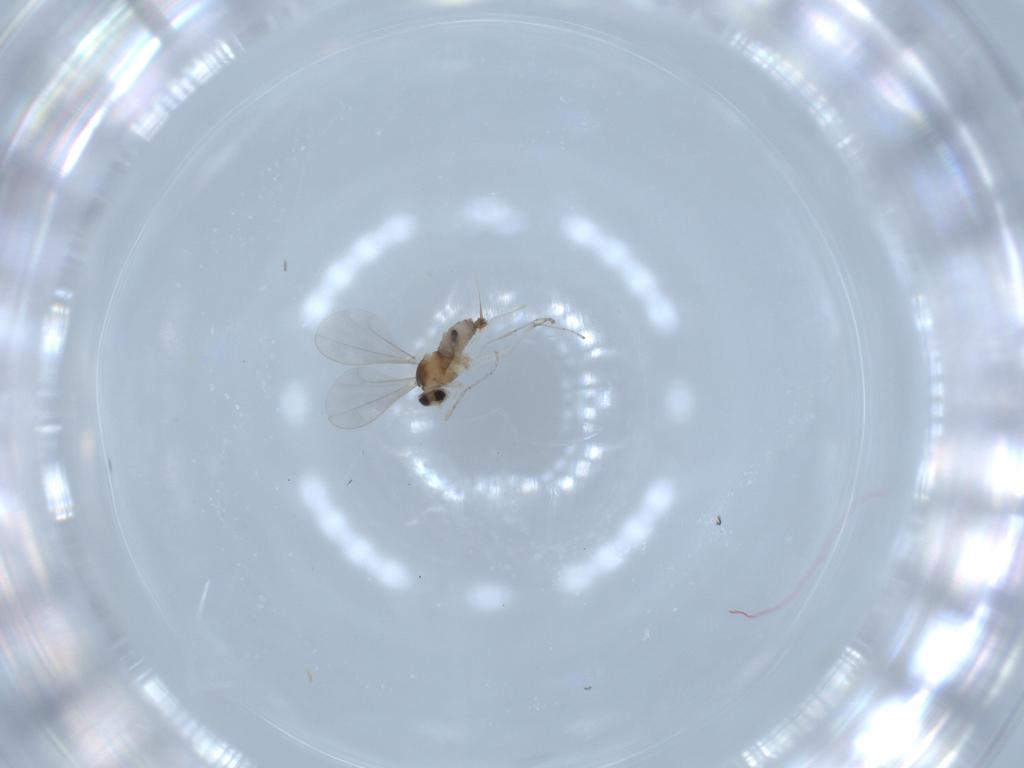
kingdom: Animalia
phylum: Arthropoda
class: Insecta
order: Diptera
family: Cecidomyiidae
